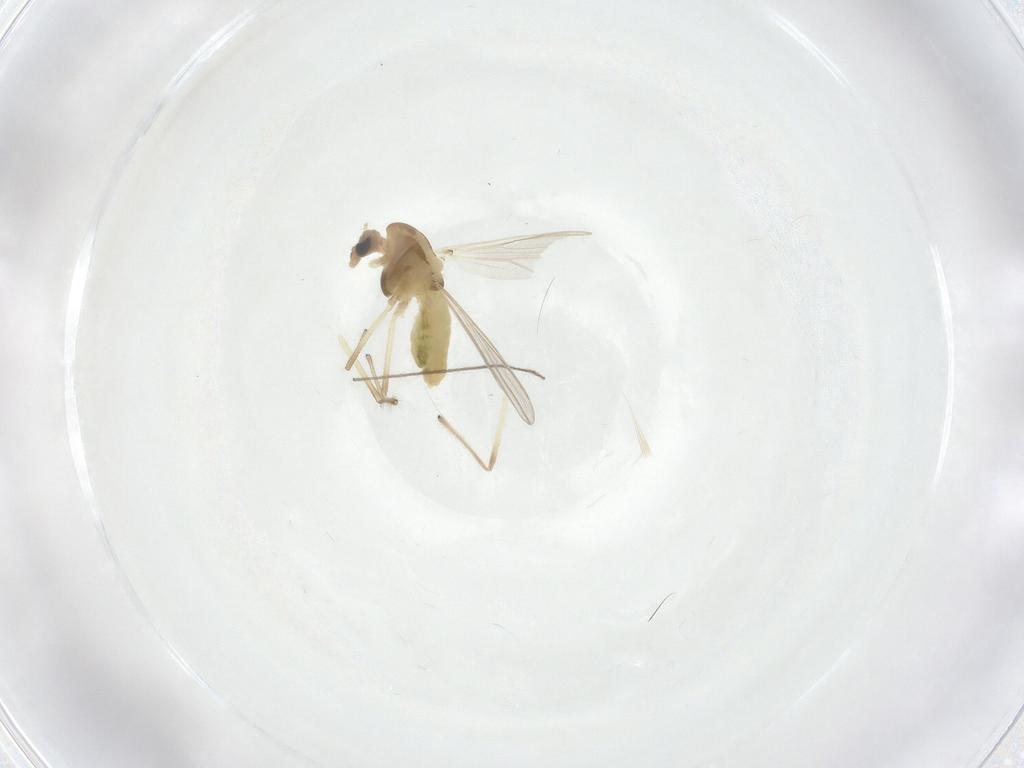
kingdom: Animalia
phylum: Arthropoda
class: Insecta
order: Diptera
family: Chironomidae
